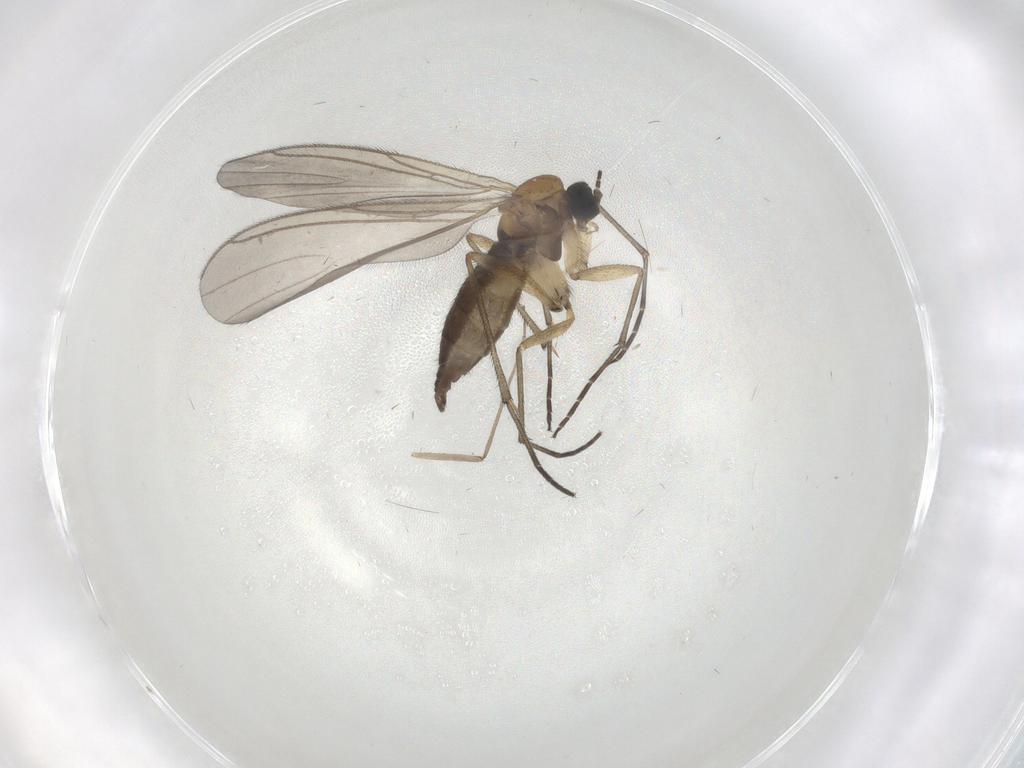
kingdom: Animalia
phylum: Arthropoda
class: Insecta
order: Diptera
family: Sciaridae
